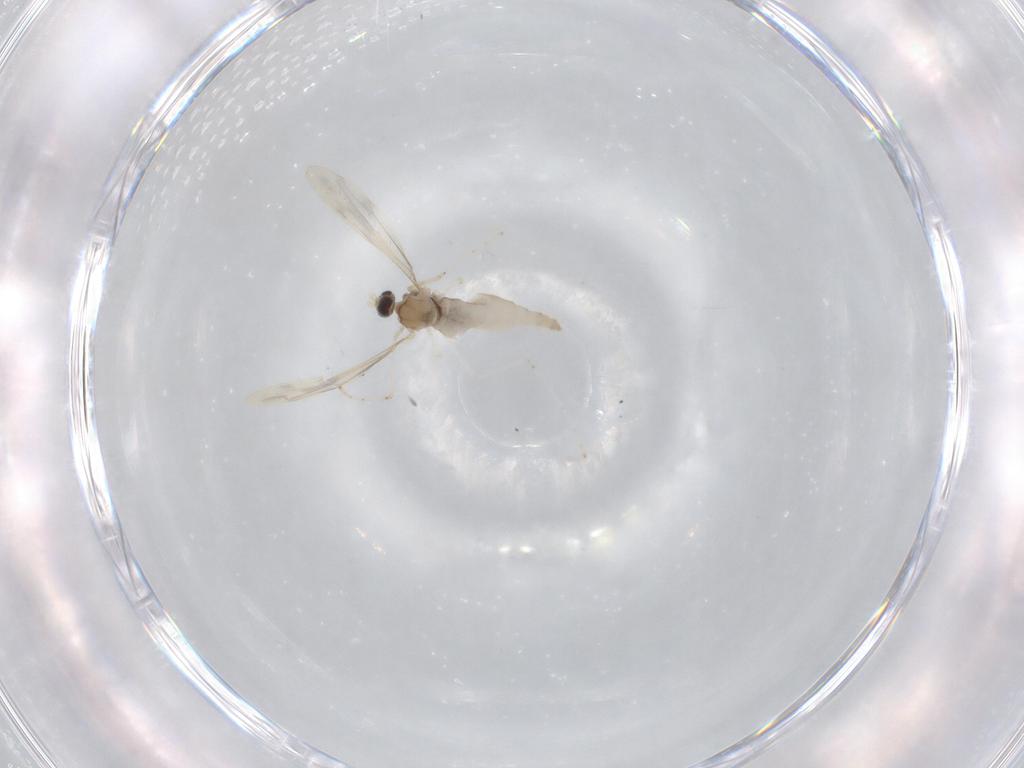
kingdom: Animalia
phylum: Arthropoda
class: Insecta
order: Diptera
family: Cecidomyiidae
